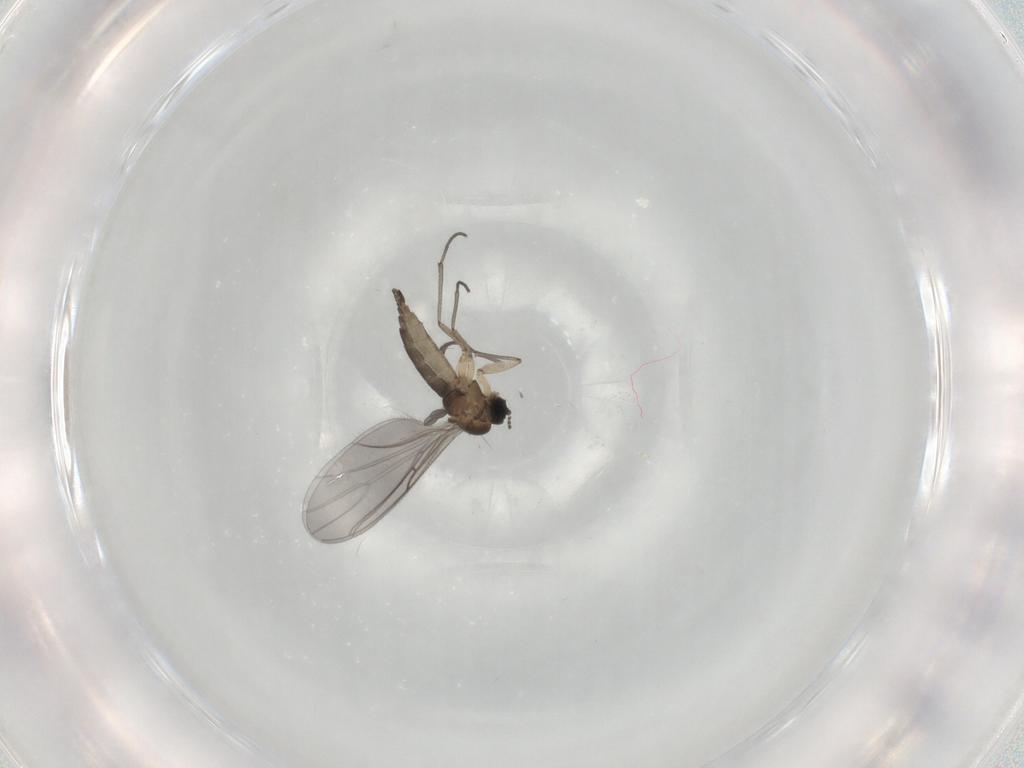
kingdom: Animalia
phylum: Arthropoda
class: Insecta
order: Diptera
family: Sciaridae
